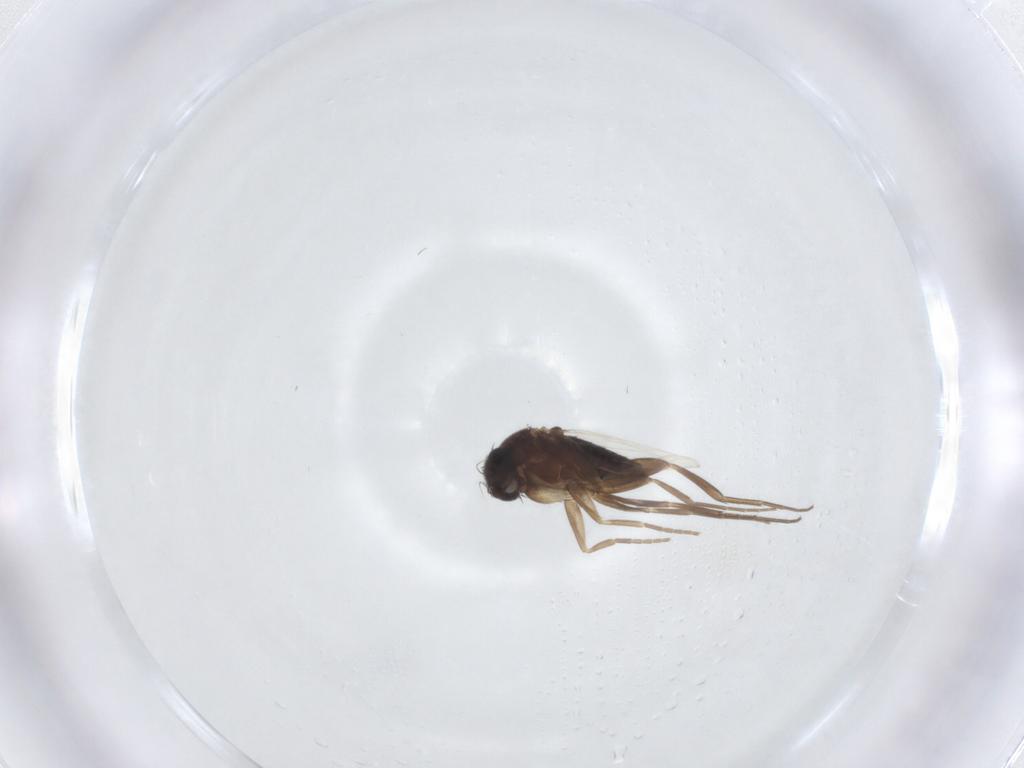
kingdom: Animalia
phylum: Arthropoda
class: Insecta
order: Diptera
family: Phoridae
